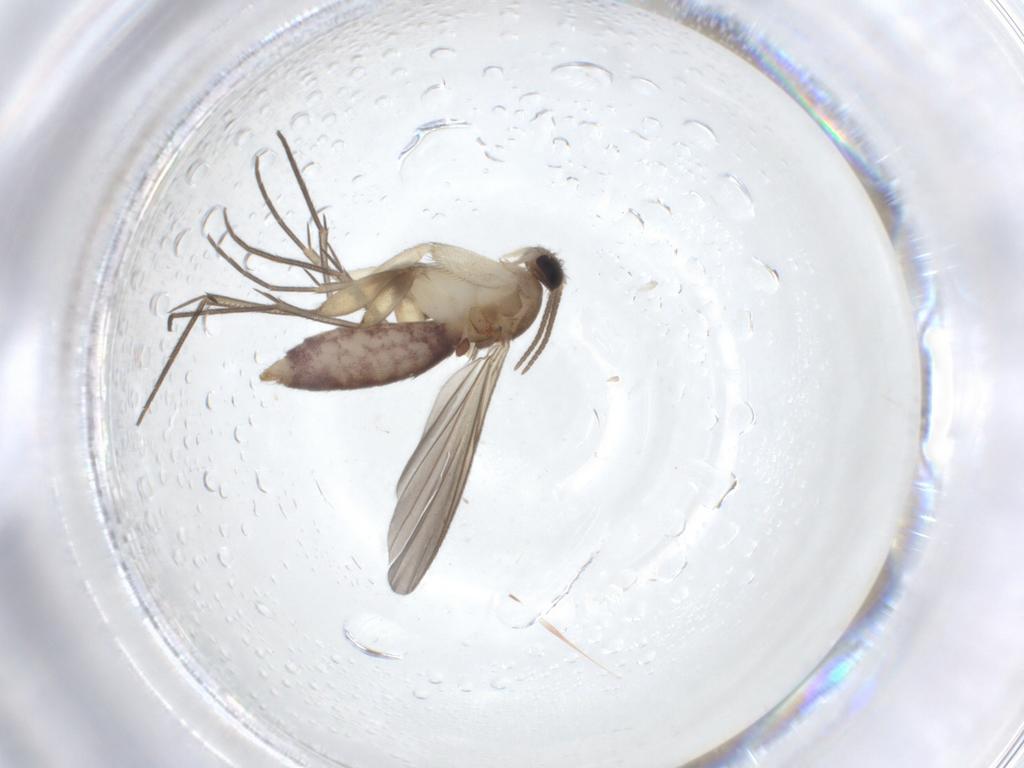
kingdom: Animalia
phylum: Arthropoda
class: Insecta
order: Diptera
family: Mycetophilidae
